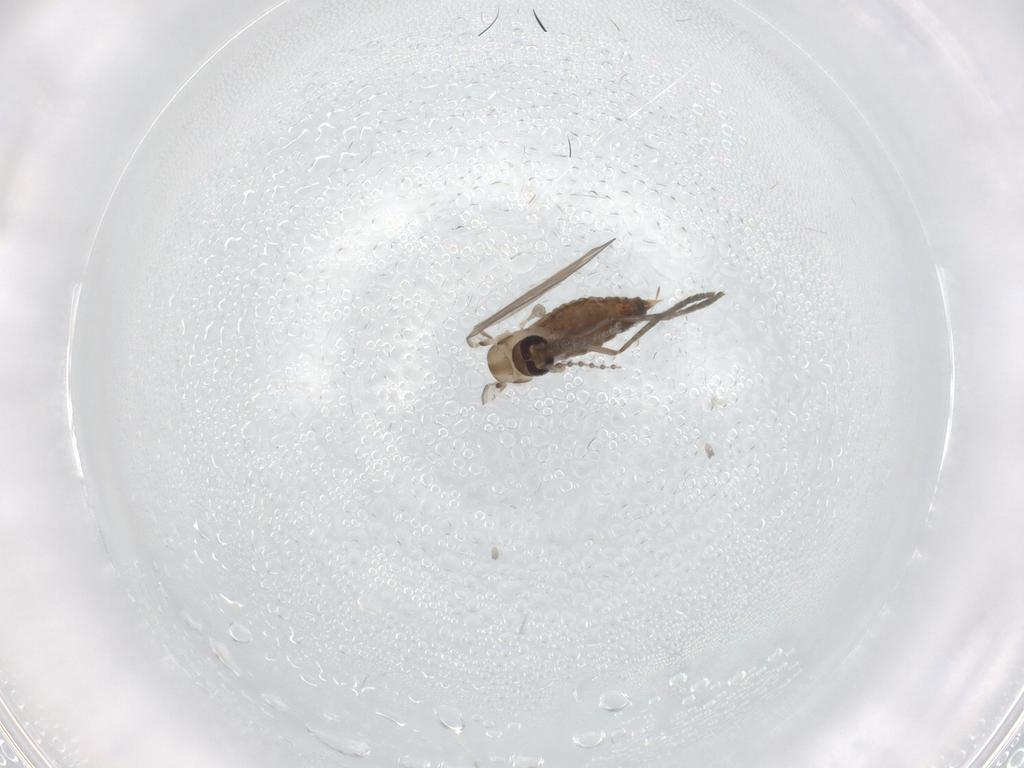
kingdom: Animalia
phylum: Arthropoda
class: Insecta
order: Diptera
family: Psychodidae
